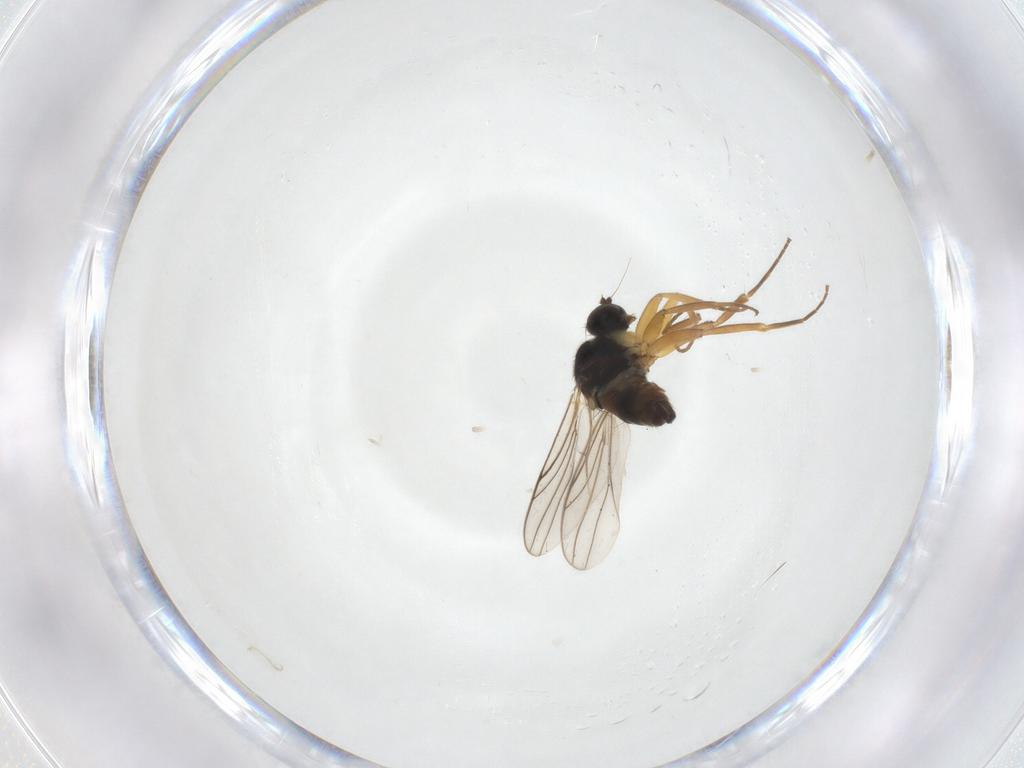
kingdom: Animalia
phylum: Arthropoda
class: Insecta
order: Diptera
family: Hybotidae
